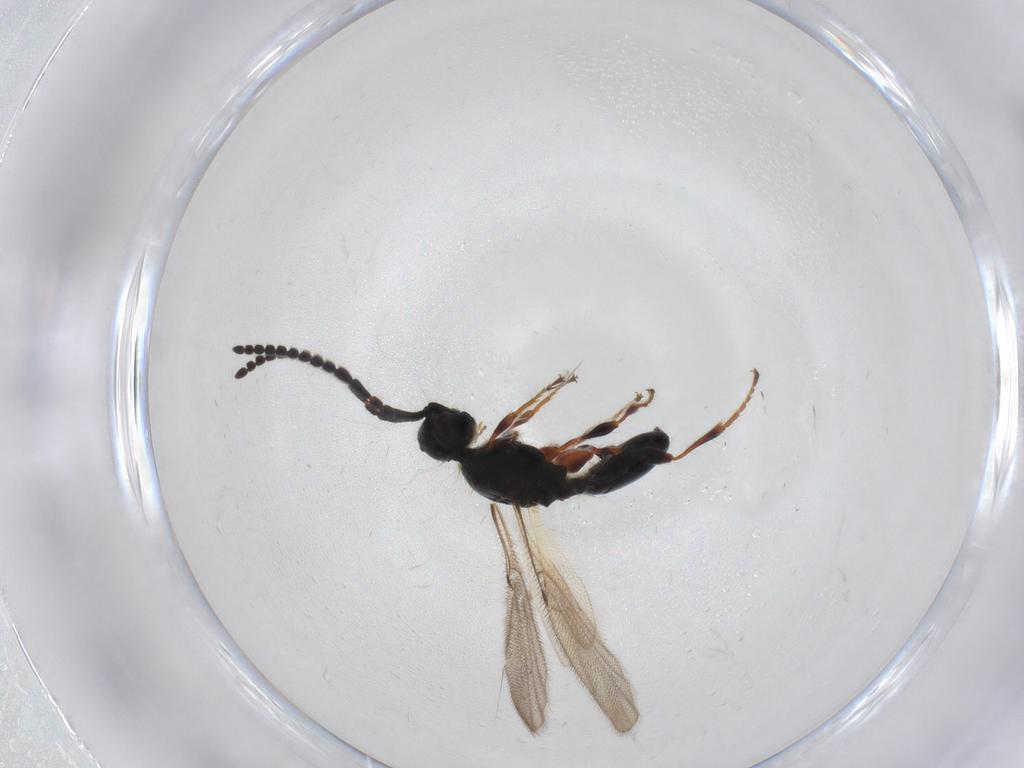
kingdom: Animalia
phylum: Arthropoda
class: Insecta
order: Hymenoptera
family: Diapriidae
